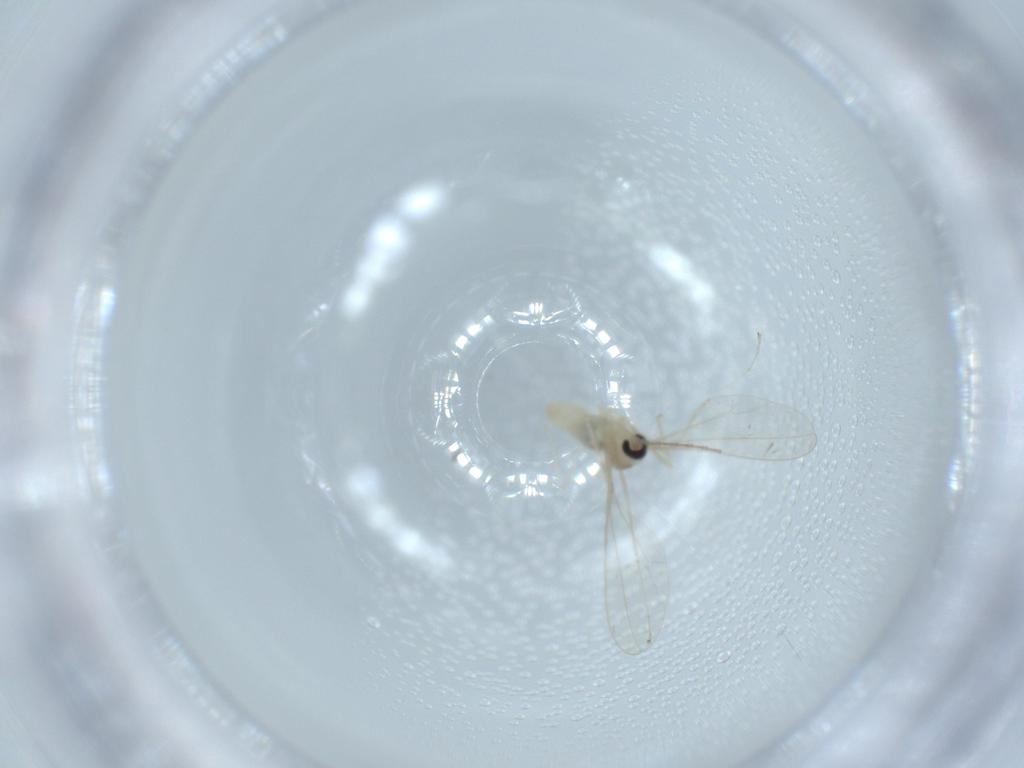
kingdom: Animalia
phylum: Arthropoda
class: Insecta
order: Diptera
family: Cecidomyiidae
